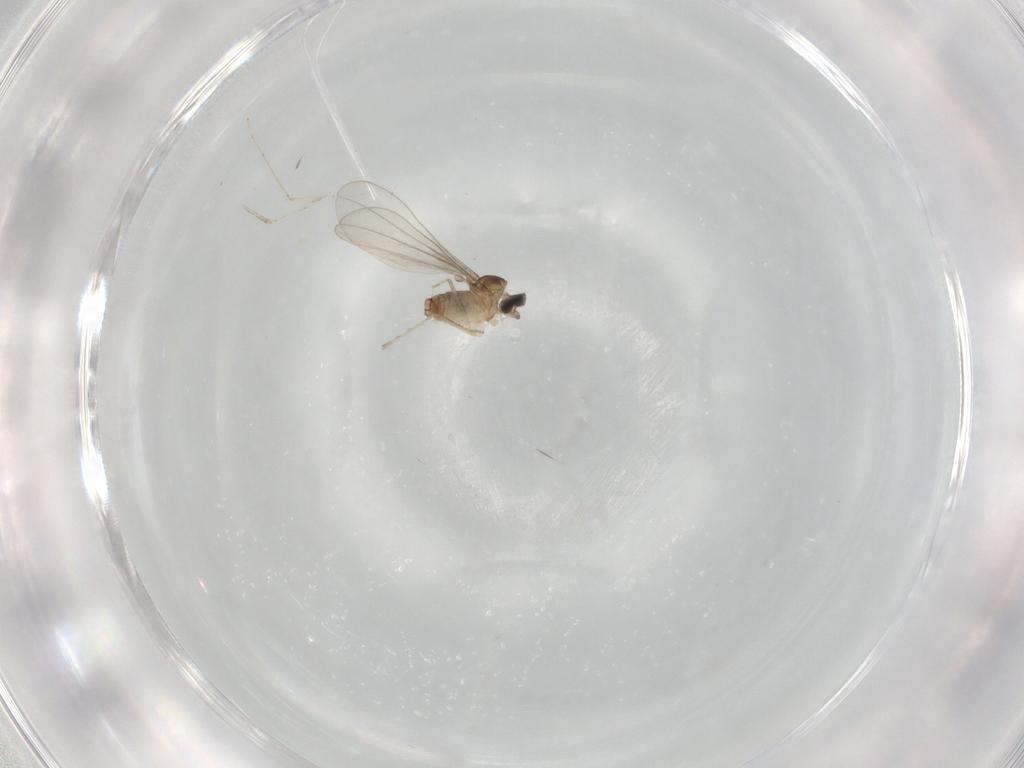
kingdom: Animalia
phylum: Arthropoda
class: Insecta
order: Diptera
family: Cecidomyiidae
